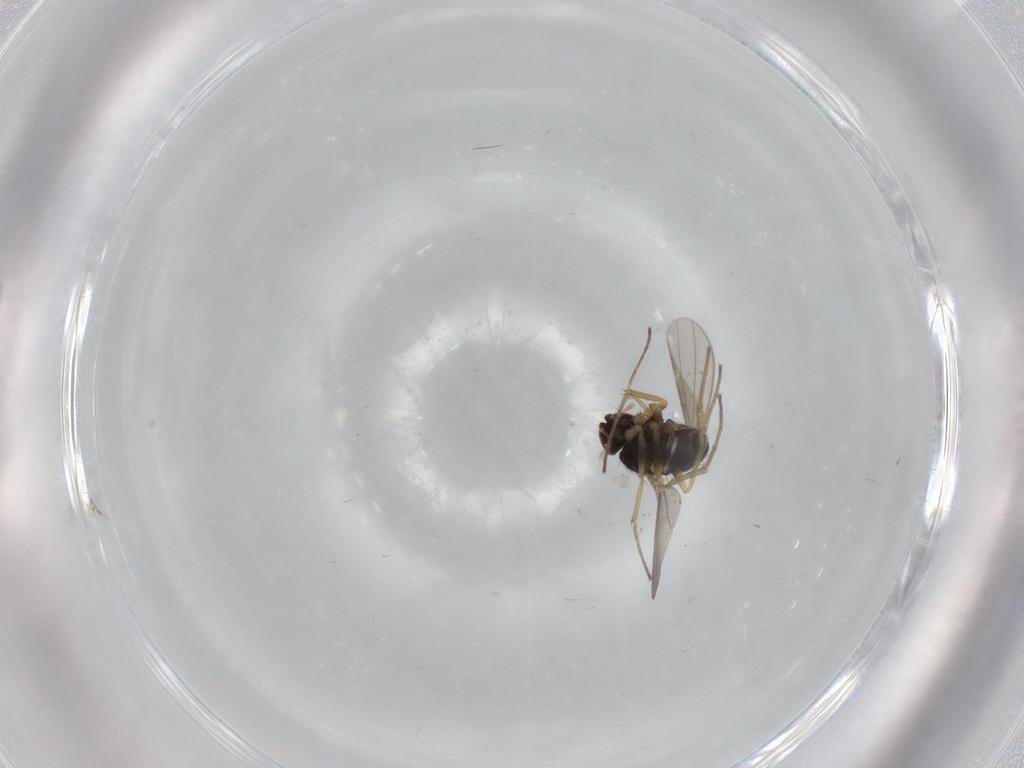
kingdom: Animalia
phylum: Arthropoda
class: Insecta
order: Diptera
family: Dolichopodidae
